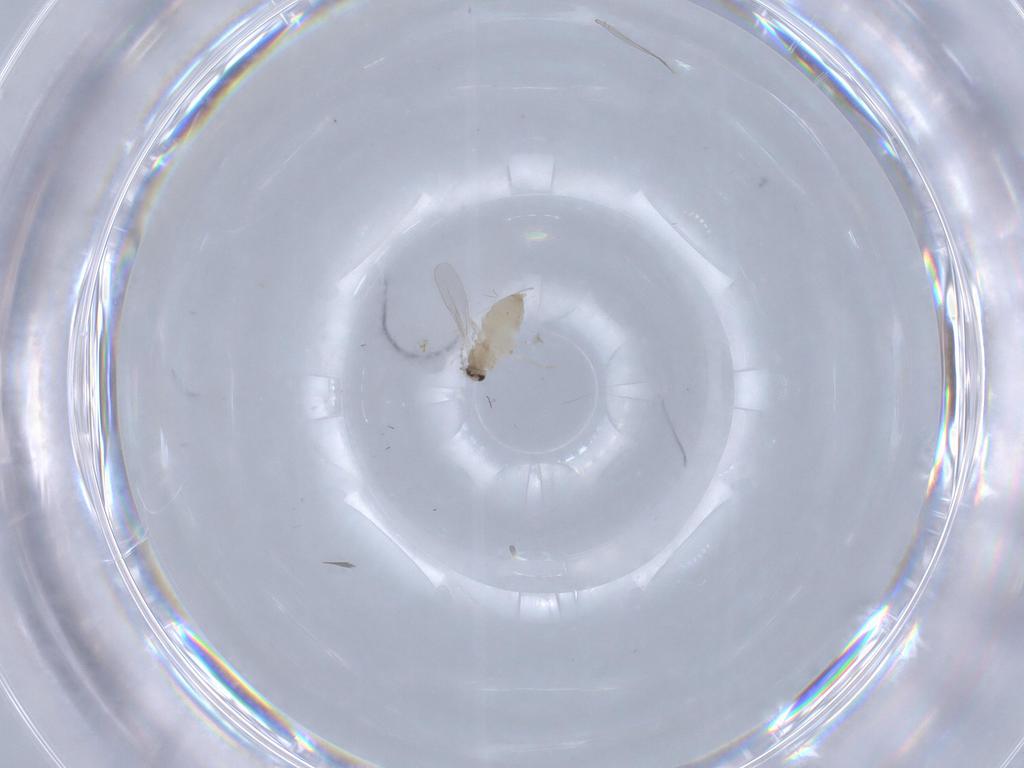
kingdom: Animalia
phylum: Arthropoda
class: Insecta
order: Diptera
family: Cecidomyiidae
